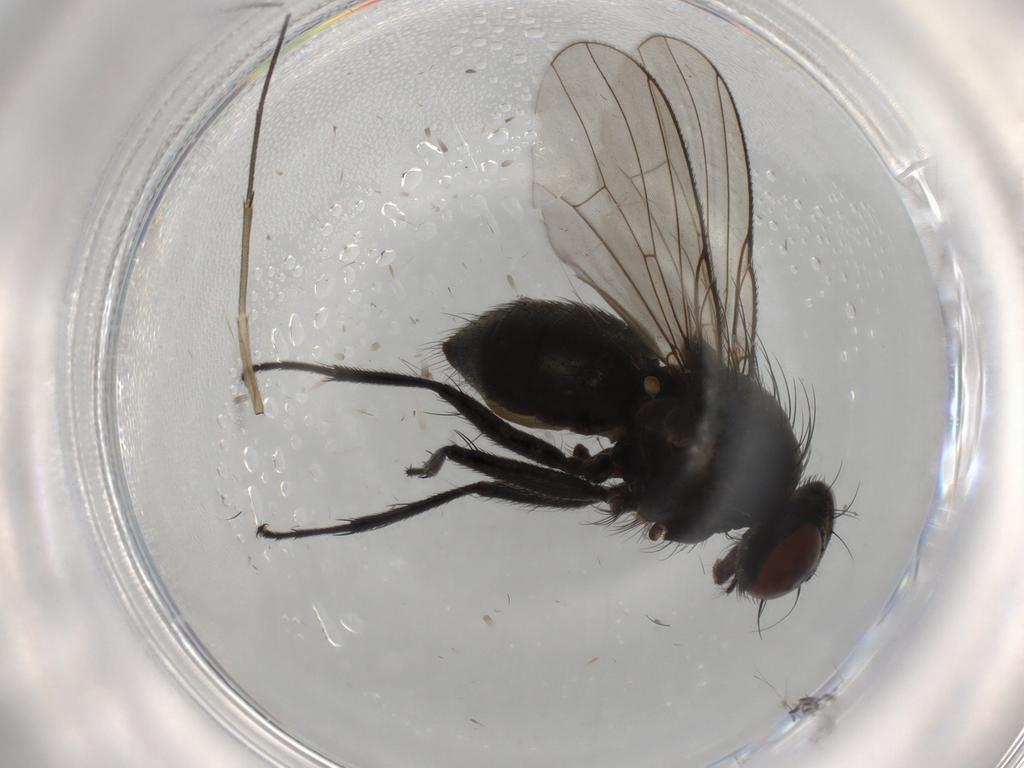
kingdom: Animalia
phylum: Arthropoda
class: Insecta
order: Diptera
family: Muscidae
